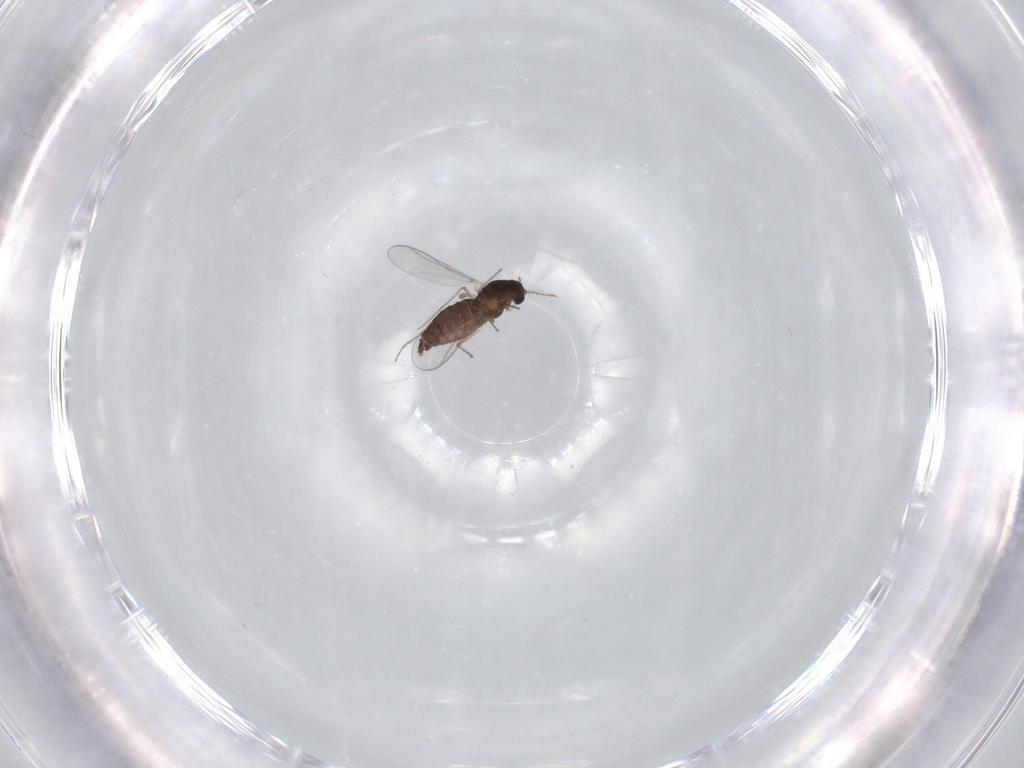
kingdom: Animalia
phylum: Arthropoda
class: Insecta
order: Diptera
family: Chironomidae
